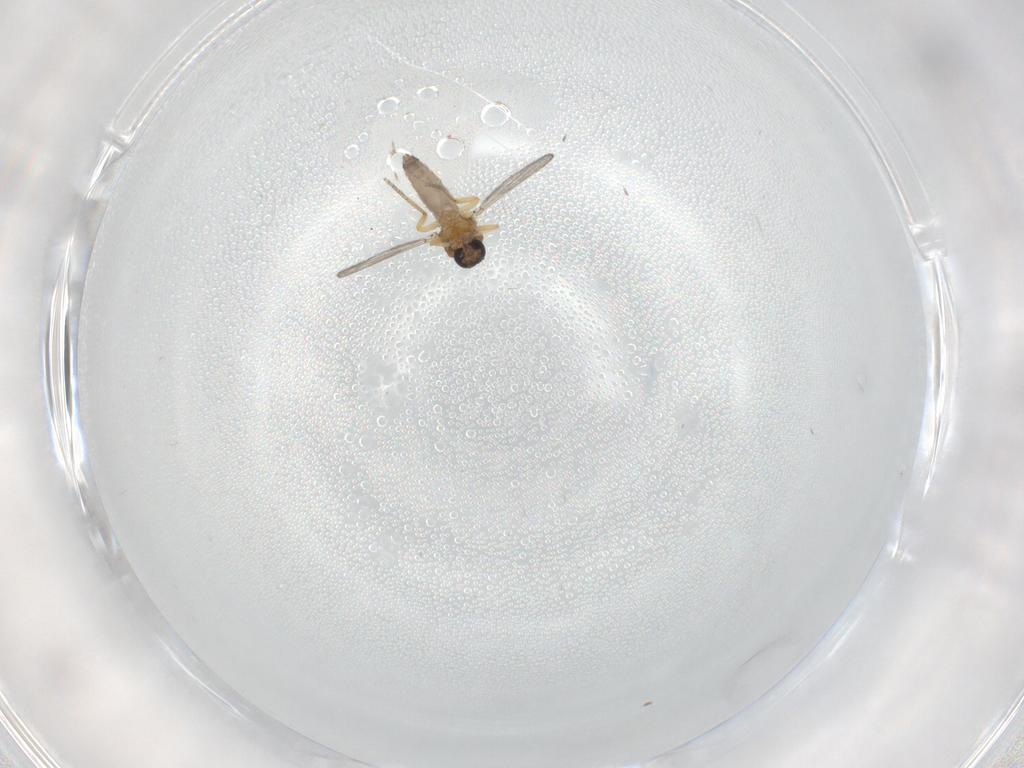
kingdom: Animalia
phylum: Arthropoda
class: Insecta
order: Diptera
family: Ceratopogonidae
